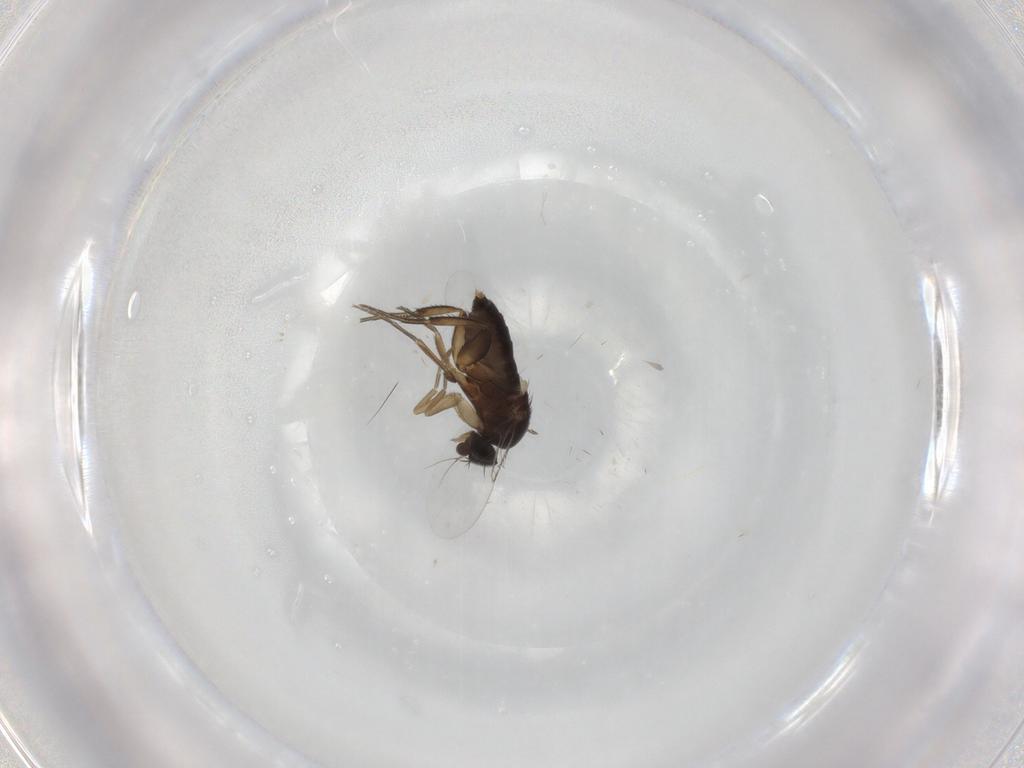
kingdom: Animalia
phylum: Arthropoda
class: Insecta
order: Diptera
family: Phoridae
